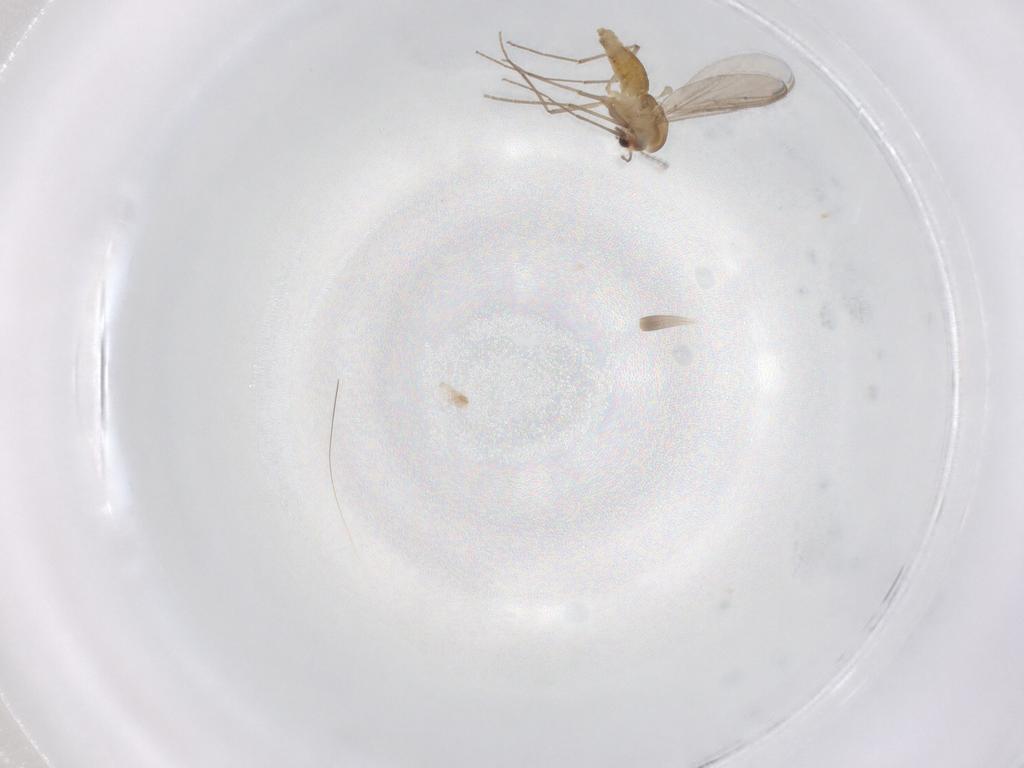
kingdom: Animalia
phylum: Arthropoda
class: Insecta
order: Diptera
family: Chironomidae
